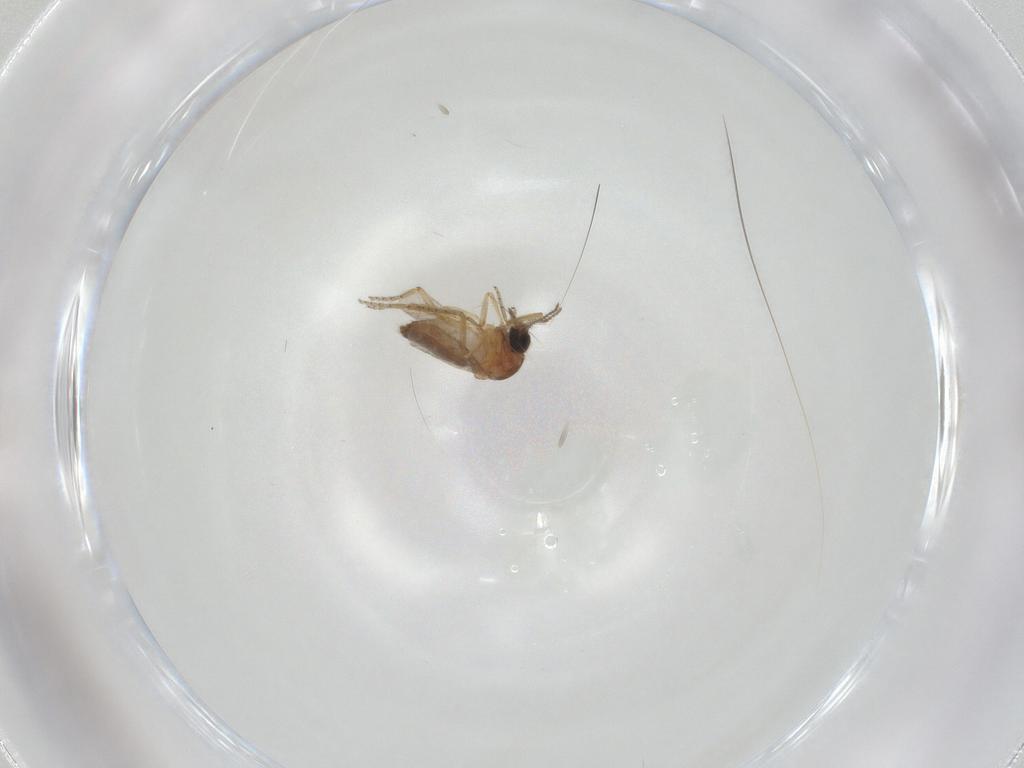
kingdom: Animalia
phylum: Arthropoda
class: Insecta
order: Diptera
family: Ceratopogonidae
